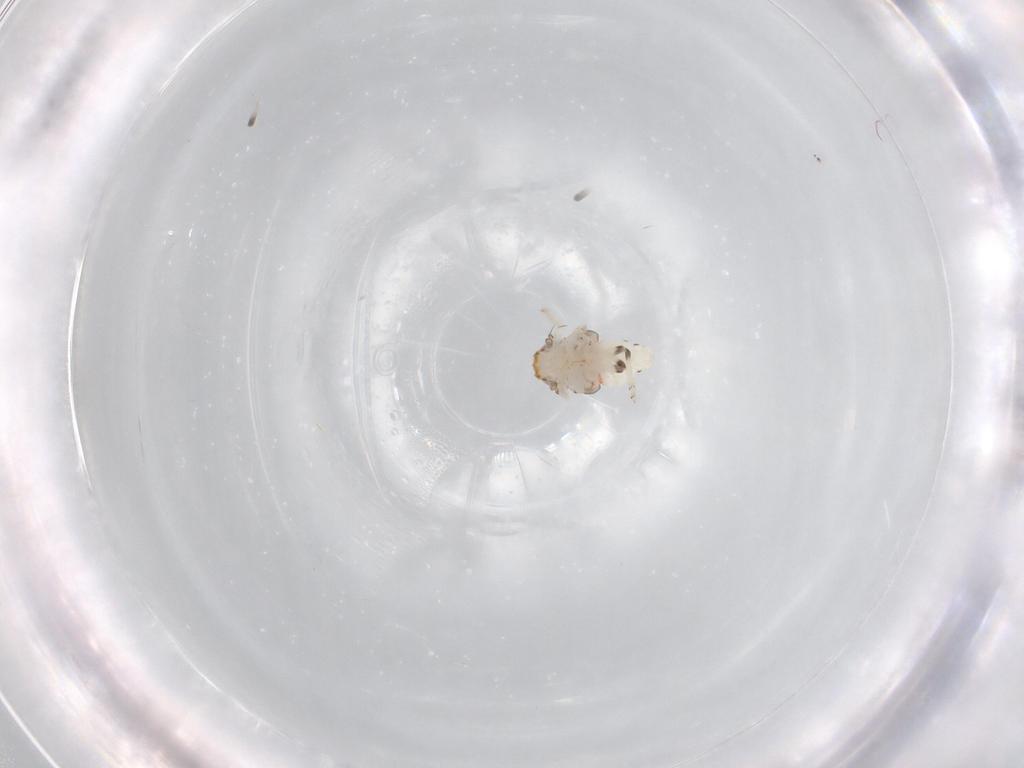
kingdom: Animalia
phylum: Arthropoda
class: Insecta
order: Hemiptera
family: Nogodinidae
